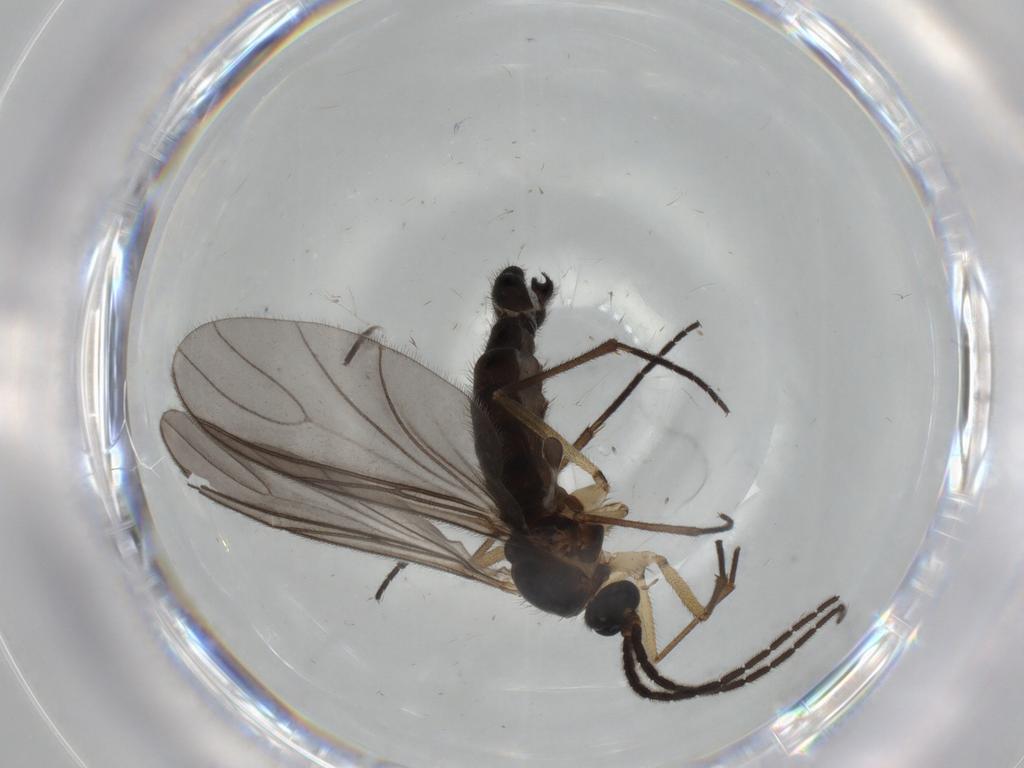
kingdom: Animalia
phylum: Arthropoda
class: Insecta
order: Diptera
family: Sciaridae
